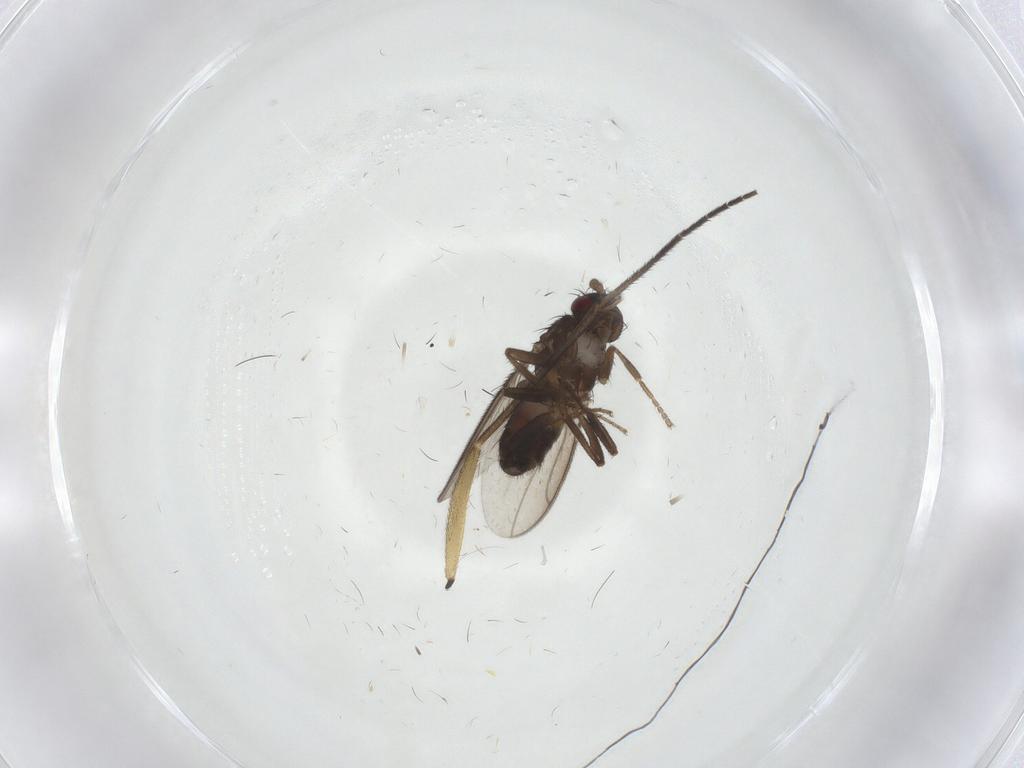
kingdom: Animalia
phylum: Arthropoda
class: Insecta
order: Diptera
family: Sciaridae
